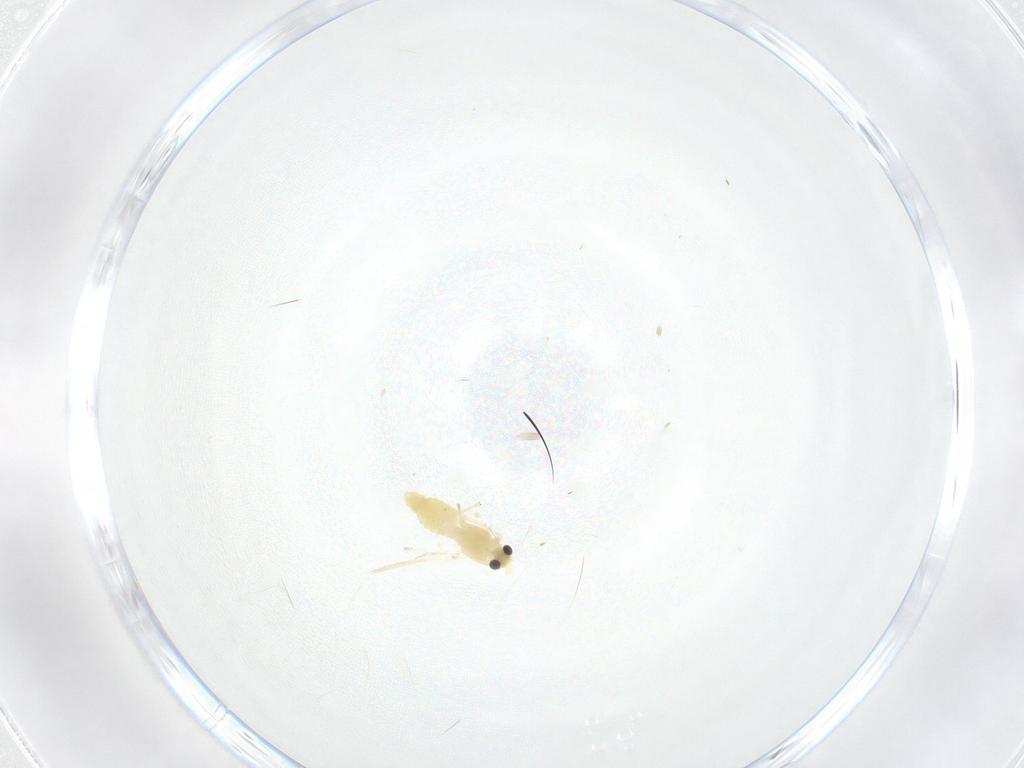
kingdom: Animalia
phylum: Arthropoda
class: Insecta
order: Diptera
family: Chironomidae
